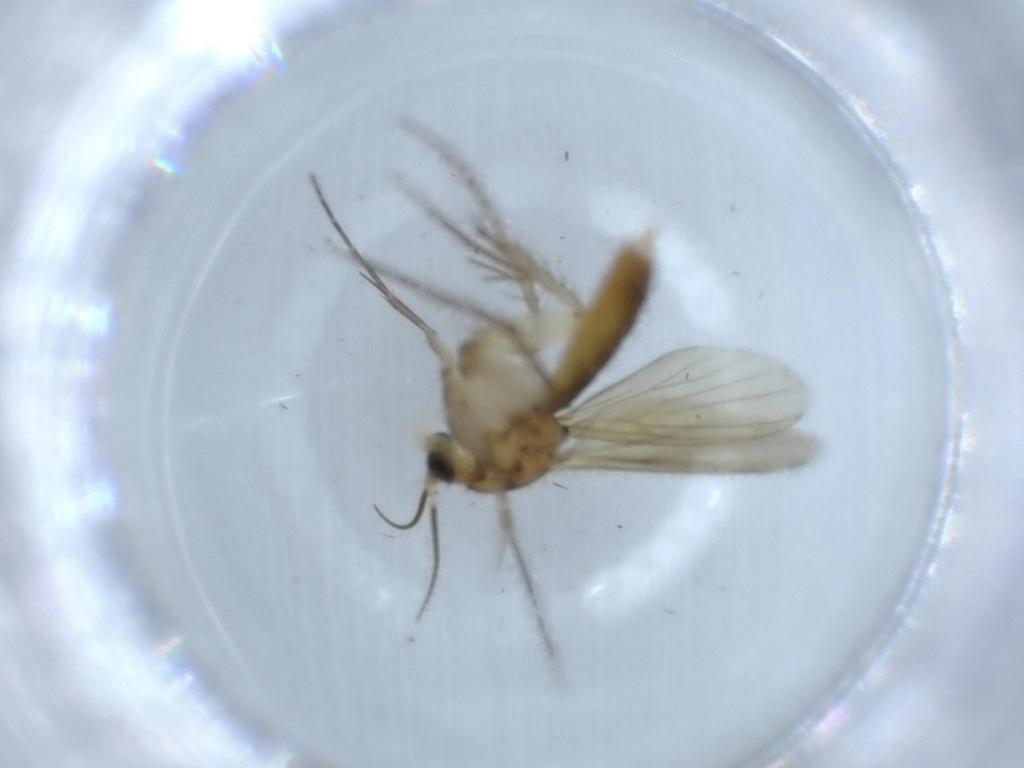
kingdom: Animalia
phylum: Arthropoda
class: Insecta
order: Diptera
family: Mycetophilidae
